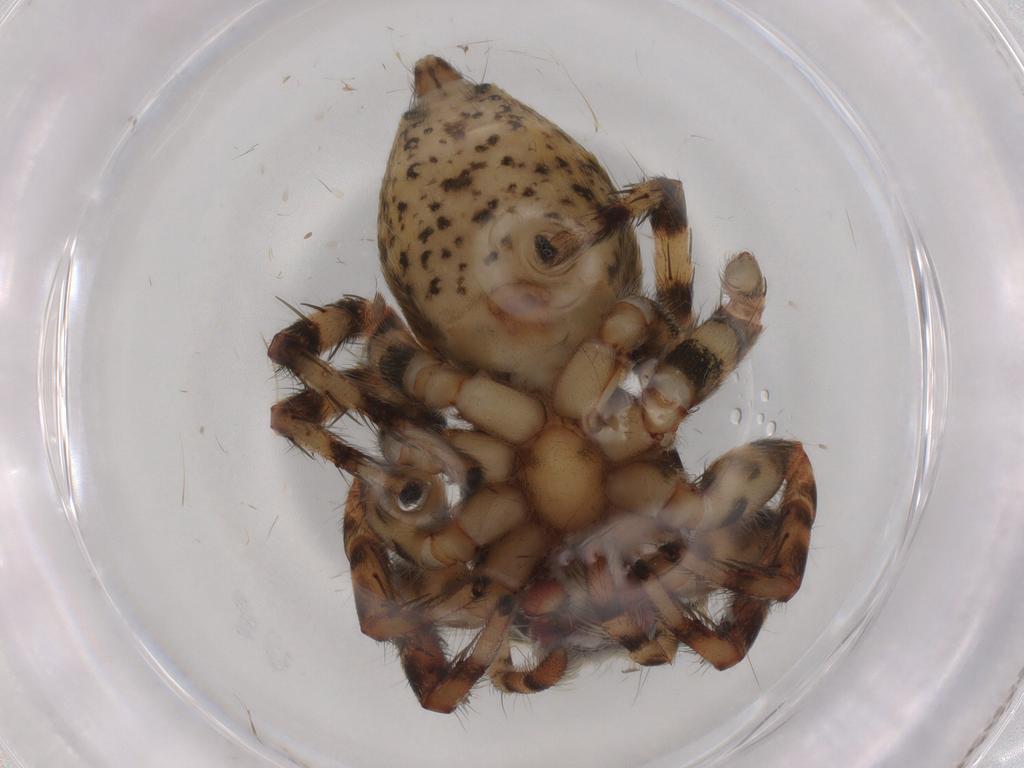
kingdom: Animalia
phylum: Arthropoda
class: Arachnida
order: Araneae
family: Salticidae
